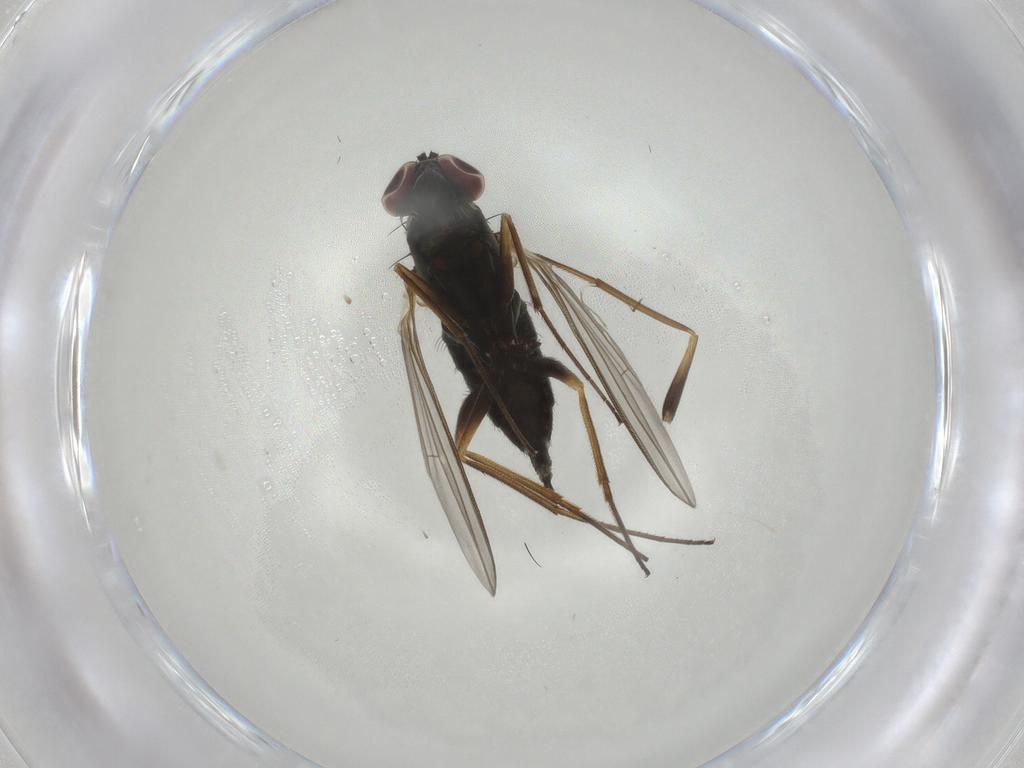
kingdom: Animalia
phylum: Arthropoda
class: Insecta
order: Diptera
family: Dolichopodidae
